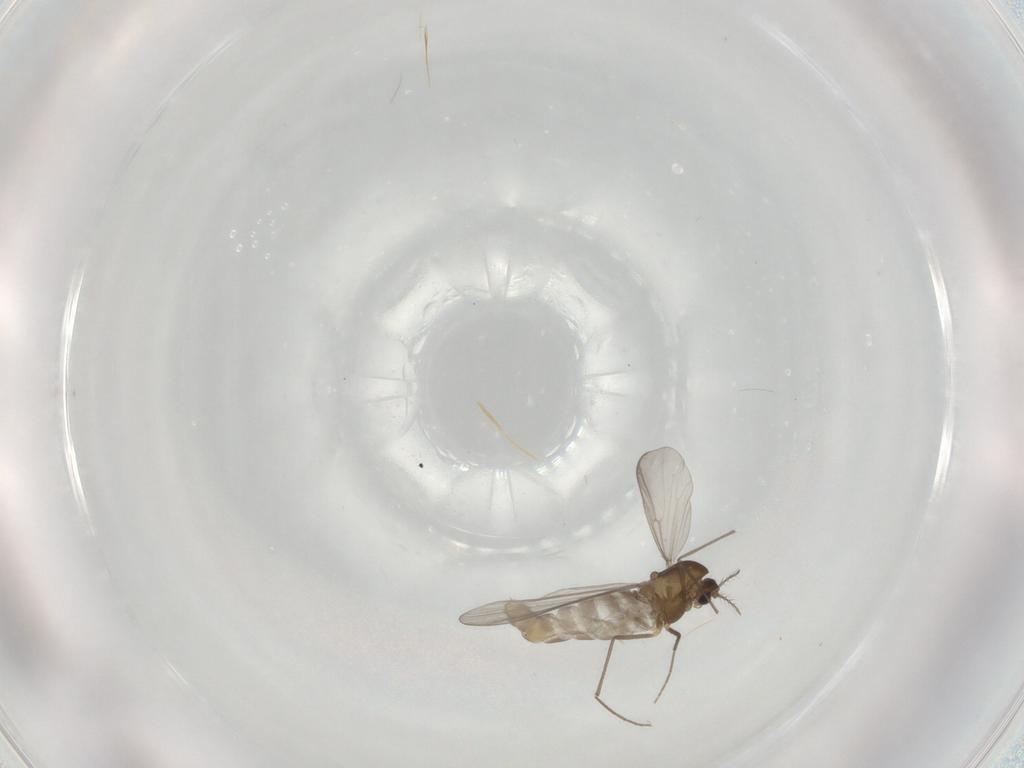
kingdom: Animalia
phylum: Arthropoda
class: Insecta
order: Diptera
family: Chironomidae
